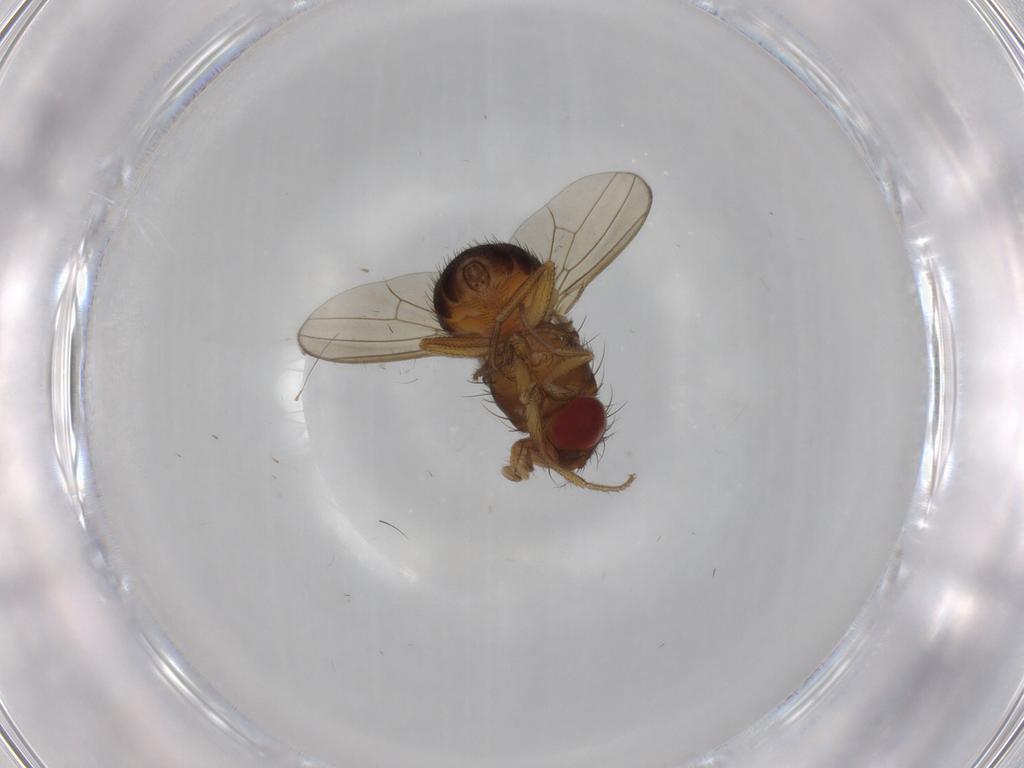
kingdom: Animalia
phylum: Arthropoda
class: Insecta
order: Diptera
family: Drosophilidae
